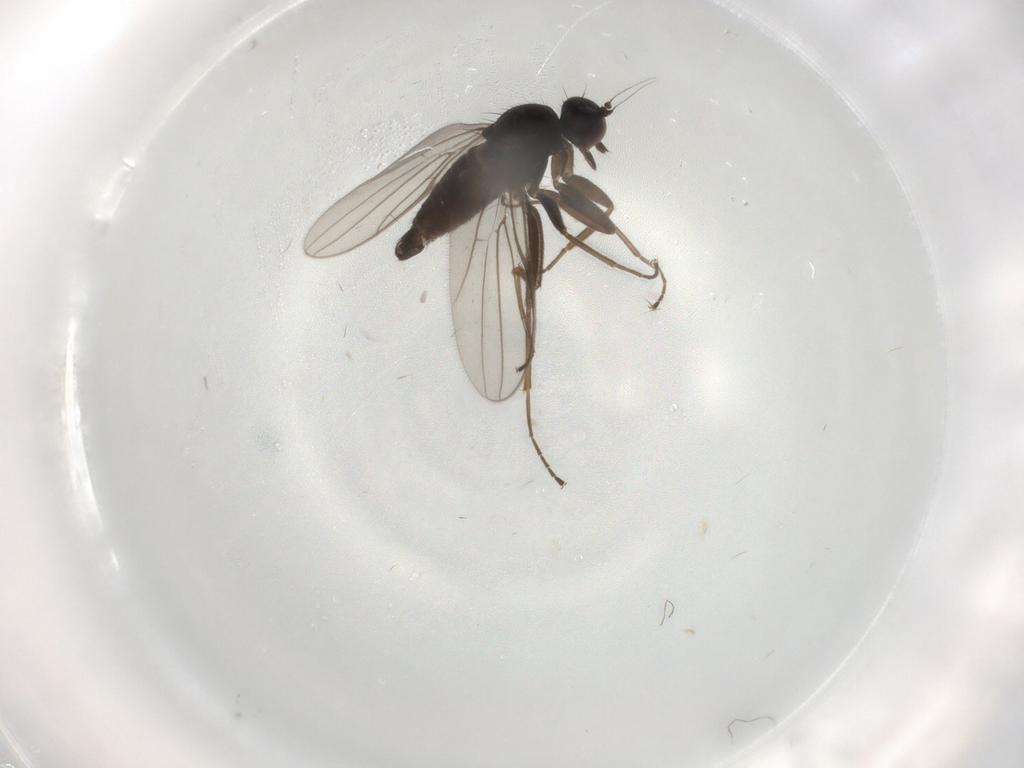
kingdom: Animalia
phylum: Arthropoda
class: Insecta
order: Diptera
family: Hybotidae
